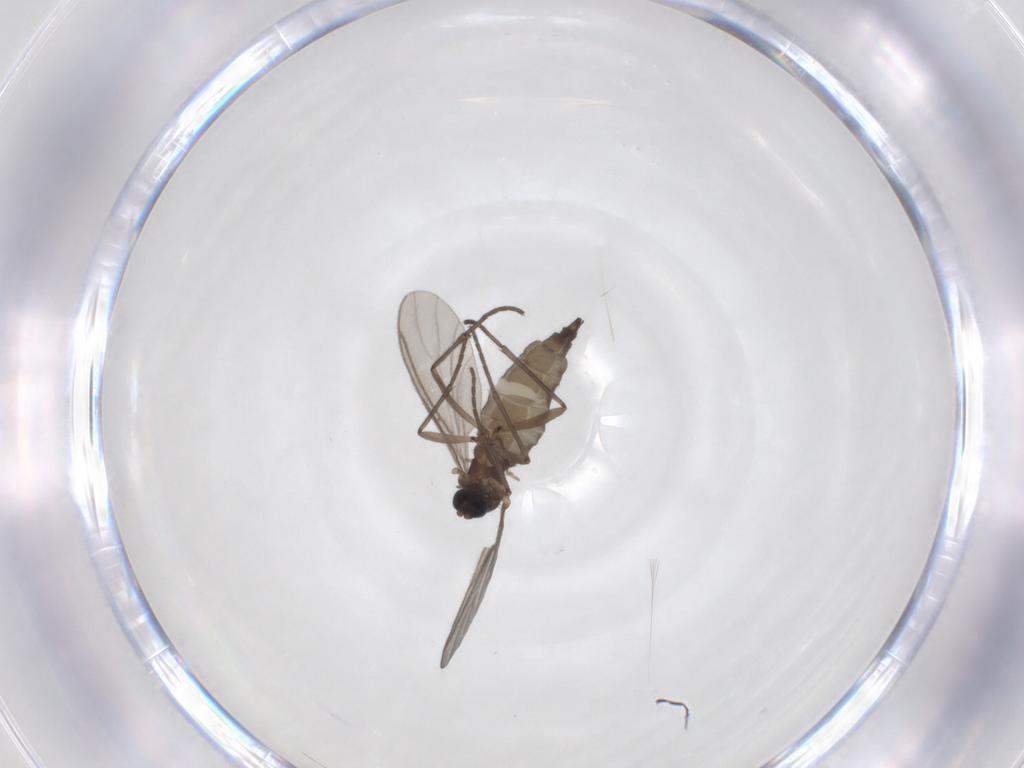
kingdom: Animalia
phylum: Arthropoda
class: Insecta
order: Diptera
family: Sciaridae
